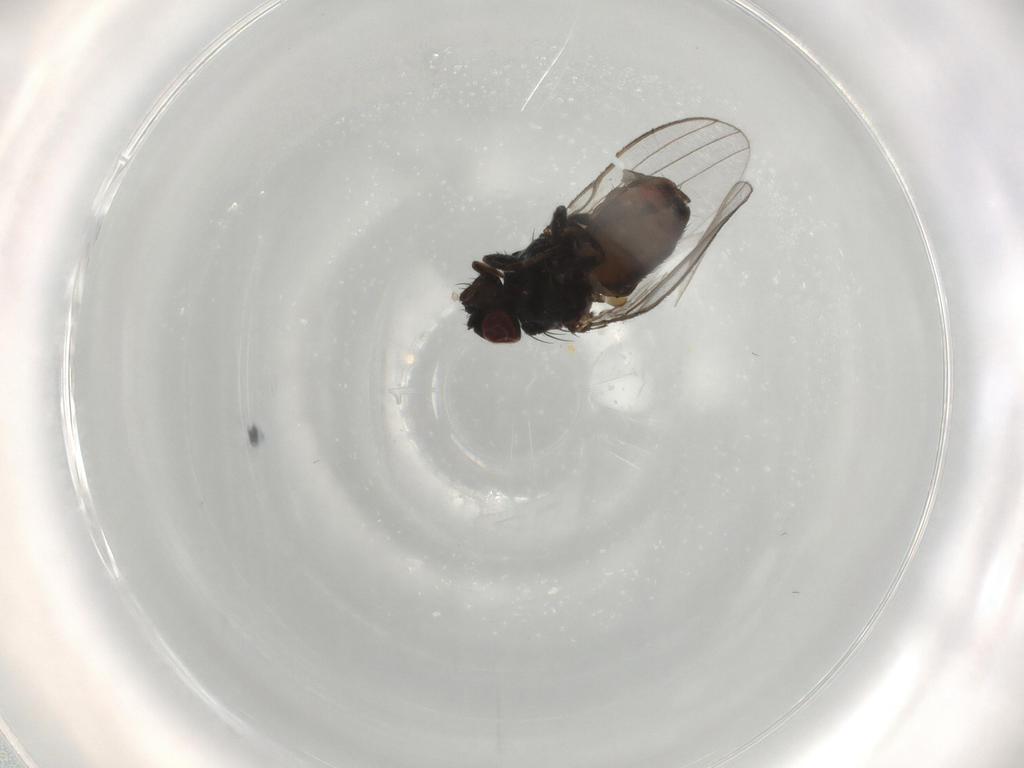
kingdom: Animalia
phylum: Arthropoda
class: Insecta
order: Diptera
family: Milichiidae
